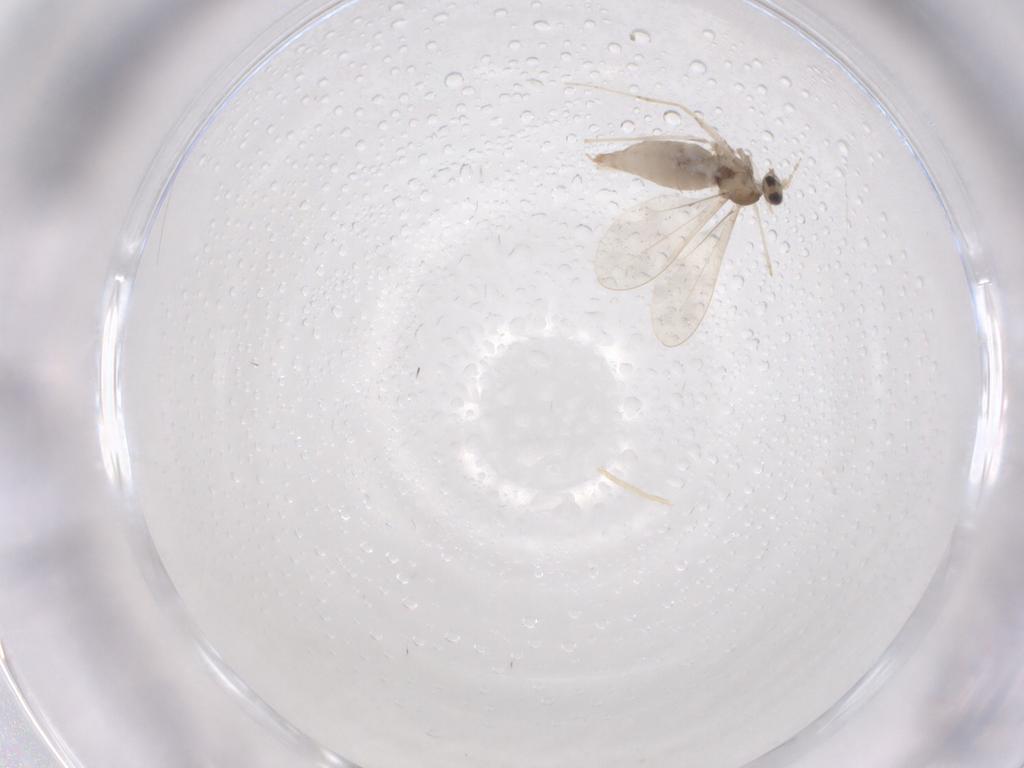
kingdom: Animalia
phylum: Arthropoda
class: Insecta
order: Diptera
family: Cecidomyiidae
